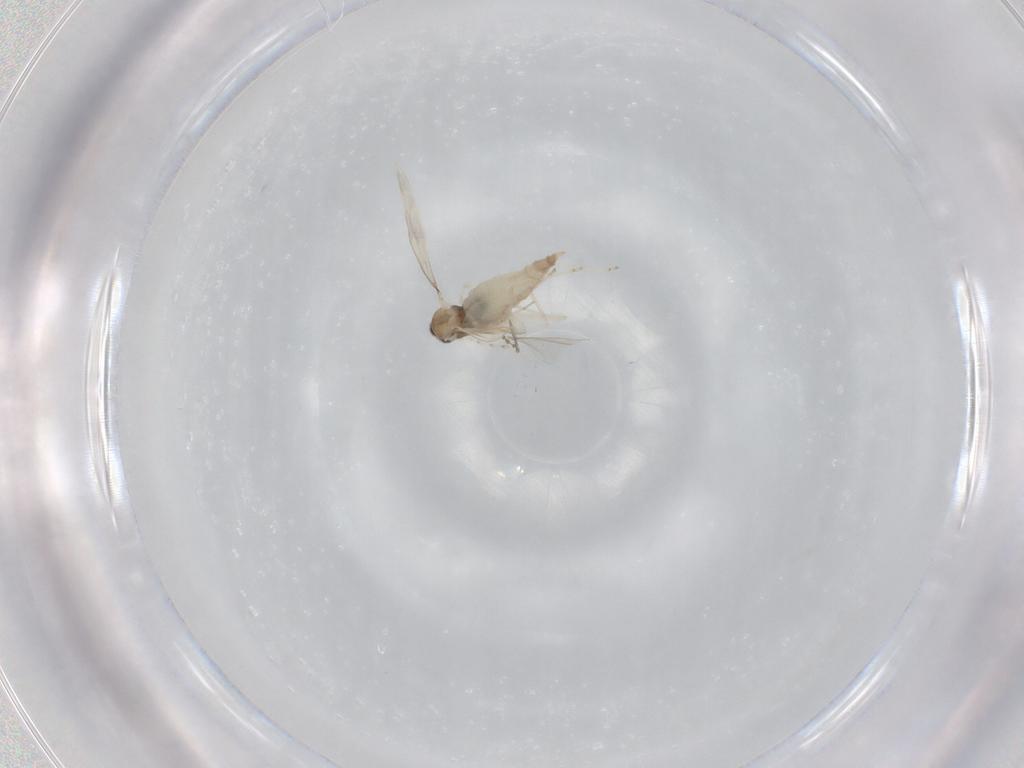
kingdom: Animalia
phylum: Arthropoda
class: Insecta
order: Diptera
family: Cecidomyiidae
